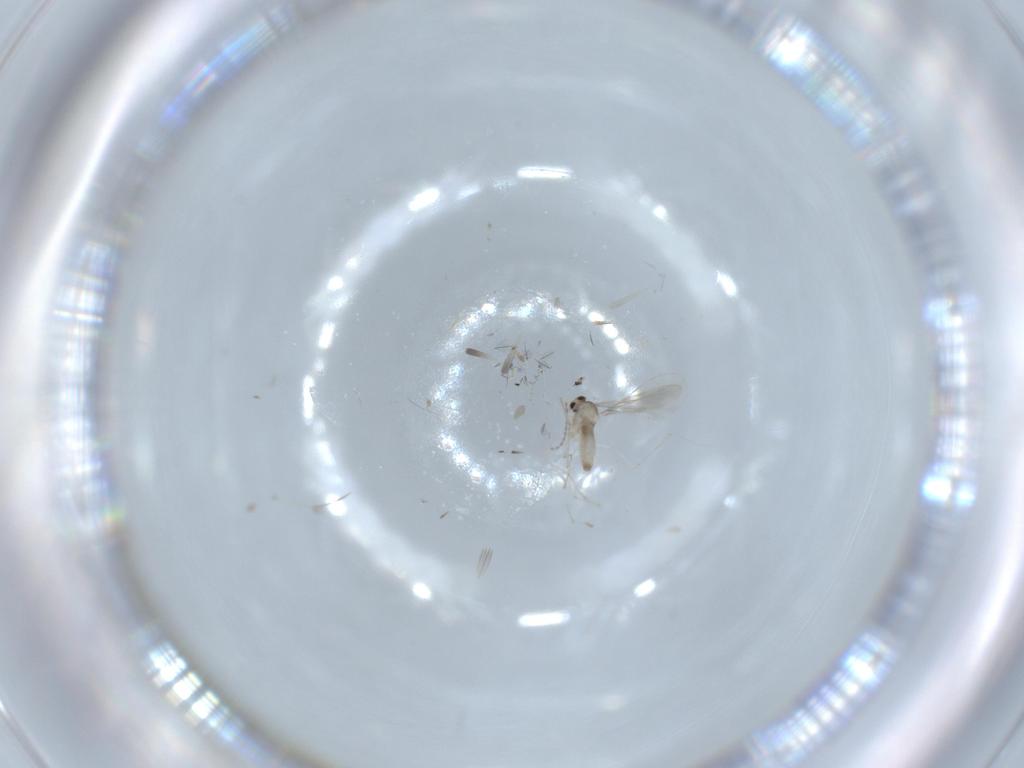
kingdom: Animalia
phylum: Arthropoda
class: Insecta
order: Diptera
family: Cecidomyiidae
